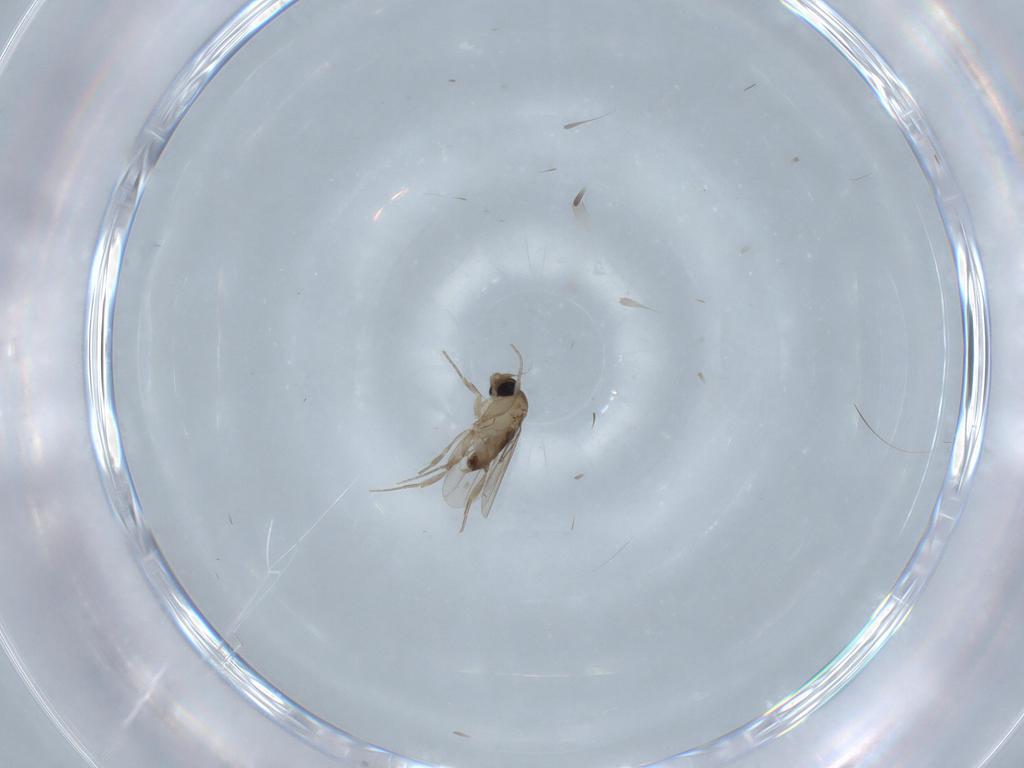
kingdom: Animalia
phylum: Arthropoda
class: Insecta
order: Diptera
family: Phoridae
